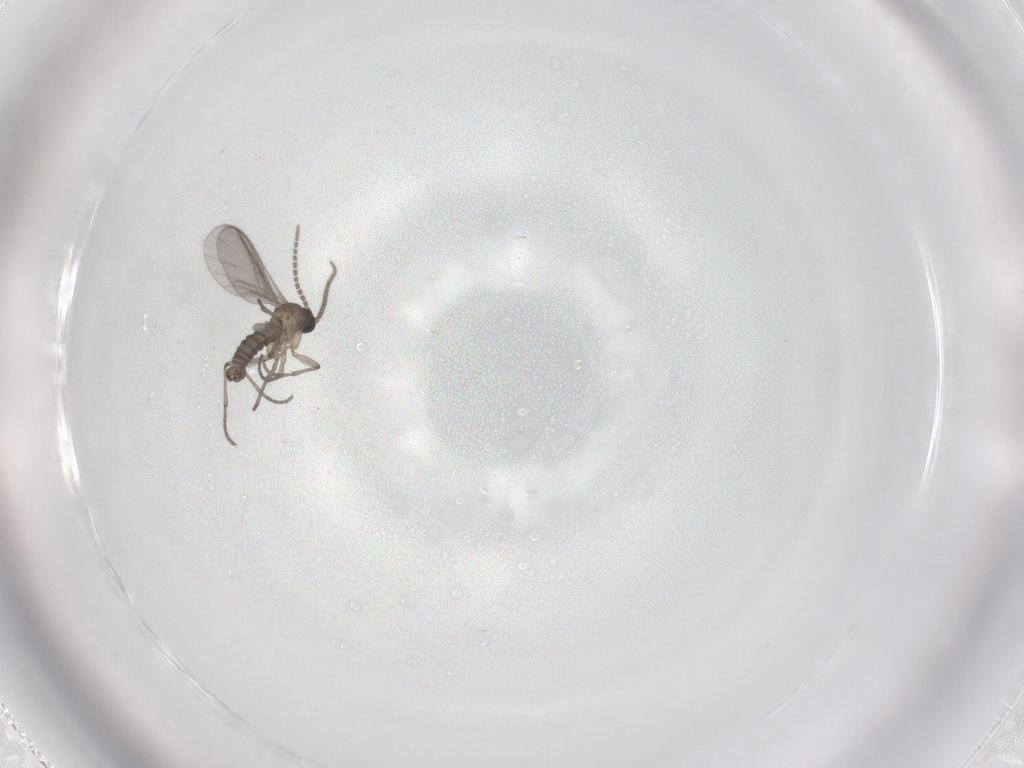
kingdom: Animalia
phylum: Arthropoda
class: Insecta
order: Diptera
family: Sciaridae
